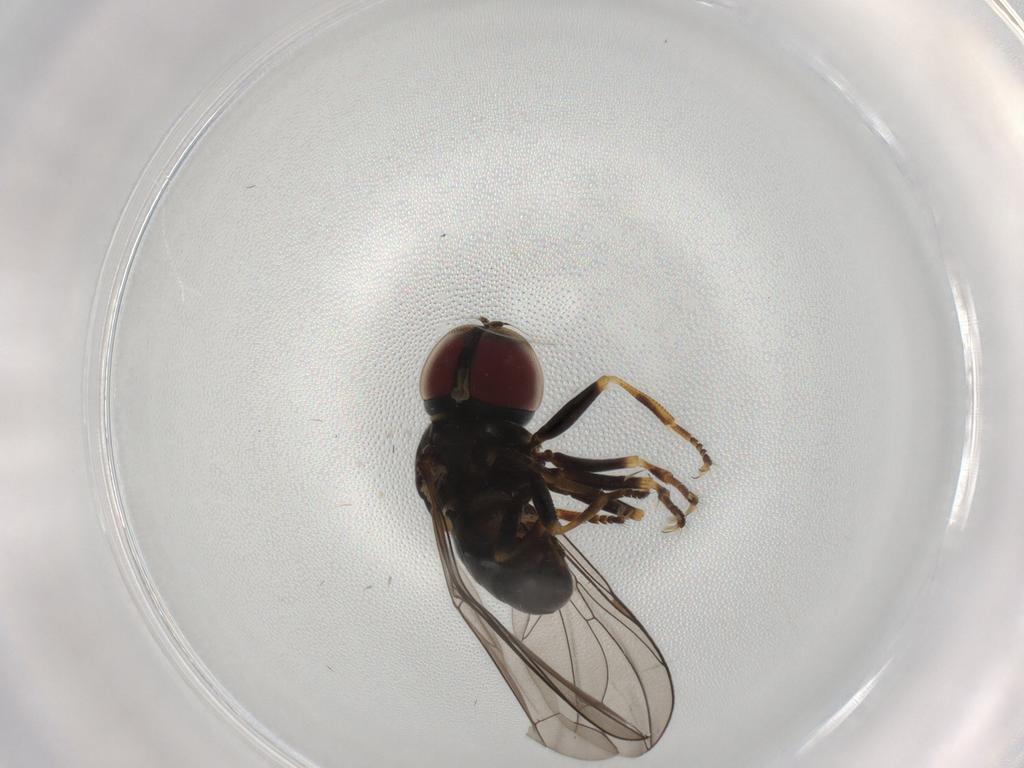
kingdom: Animalia
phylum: Arthropoda
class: Insecta
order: Diptera
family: Pipunculidae
